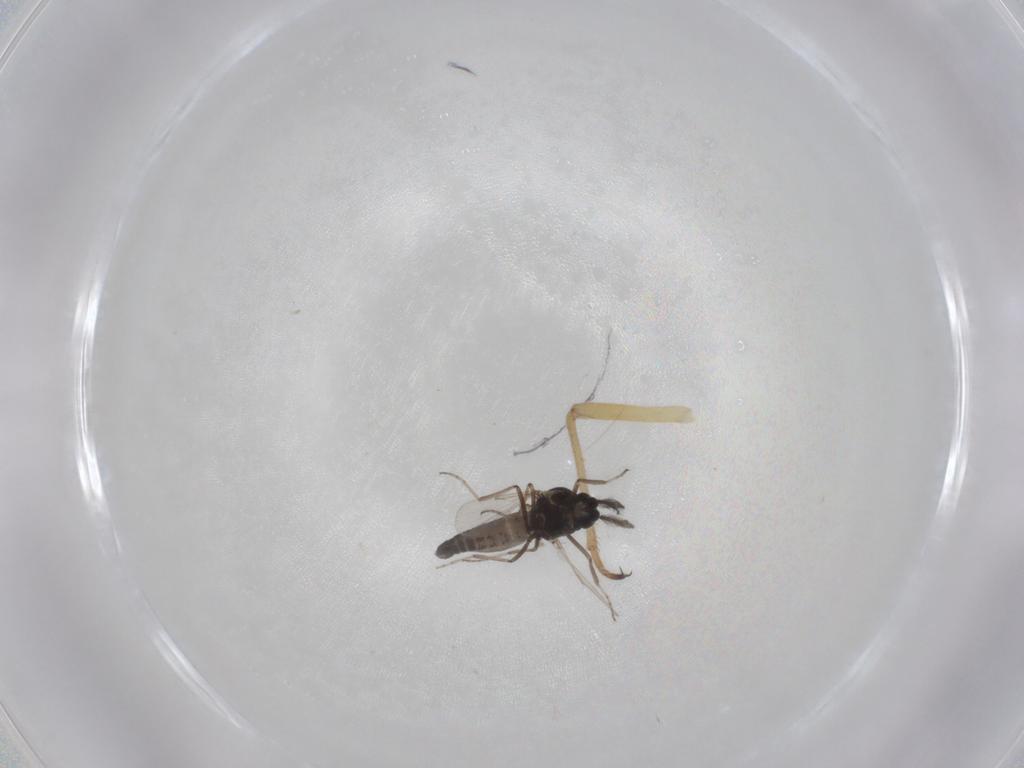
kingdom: Animalia
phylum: Arthropoda
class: Insecta
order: Diptera
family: Ceratopogonidae
